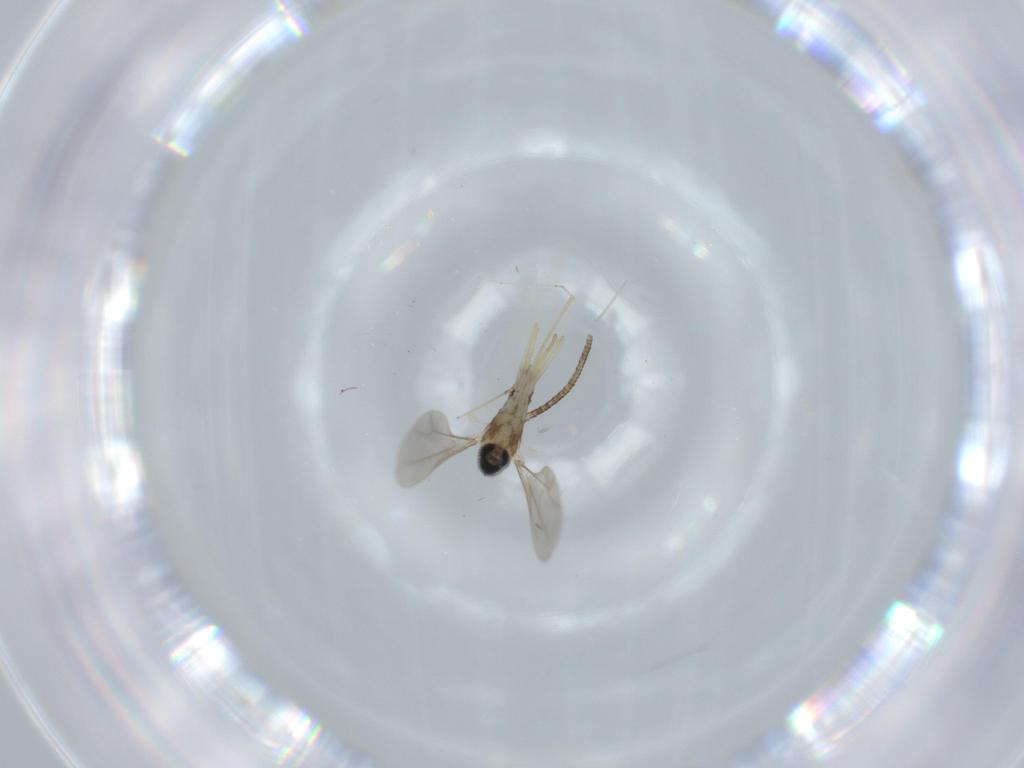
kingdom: Animalia
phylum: Arthropoda
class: Insecta
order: Diptera
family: Cecidomyiidae
